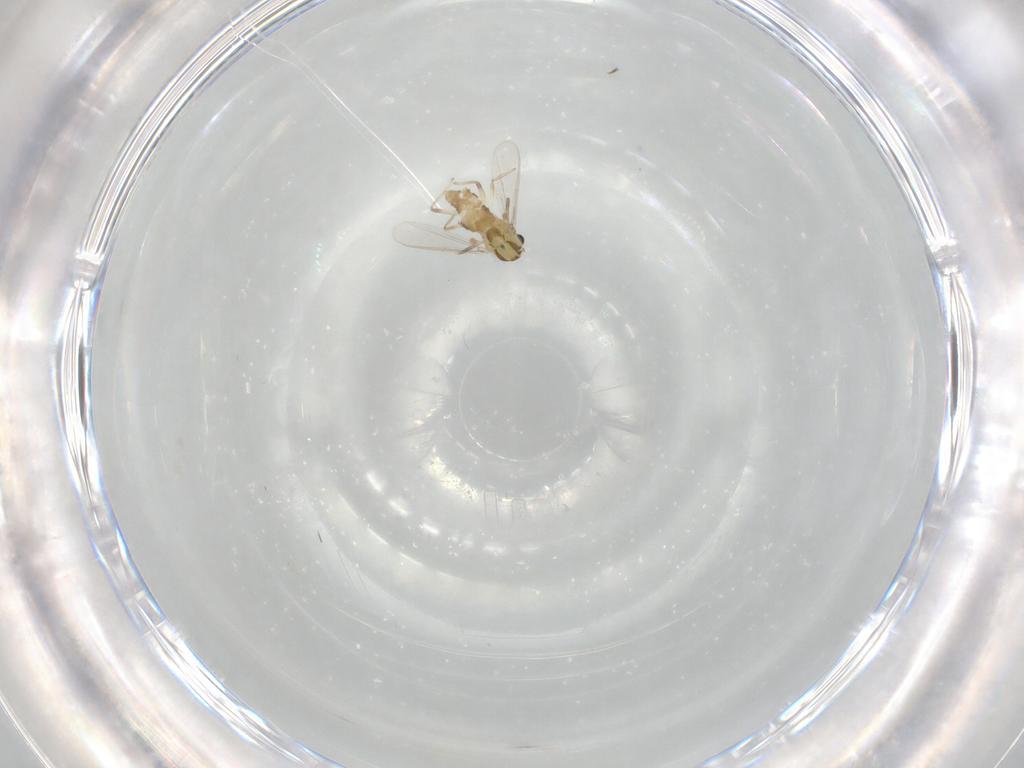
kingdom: Animalia
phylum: Arthropoda
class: Insecta
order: Diptera
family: Chironomidae
